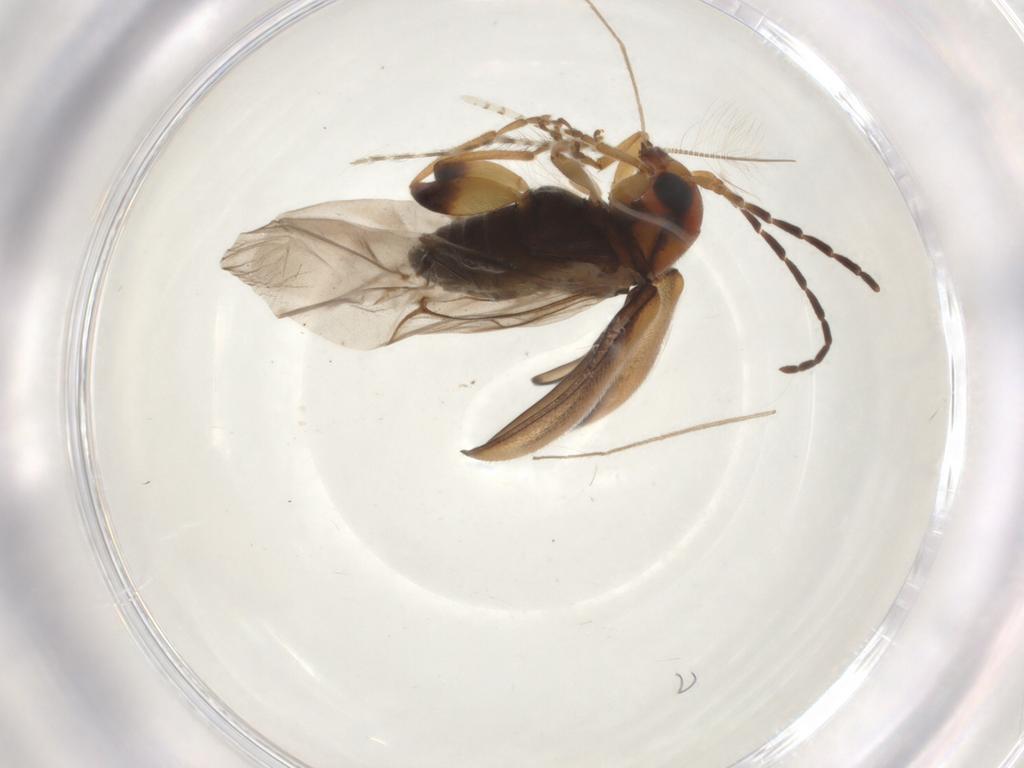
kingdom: Animalia
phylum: Arthropoda
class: Insecta
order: Coleoptera
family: Chrysomelidae
